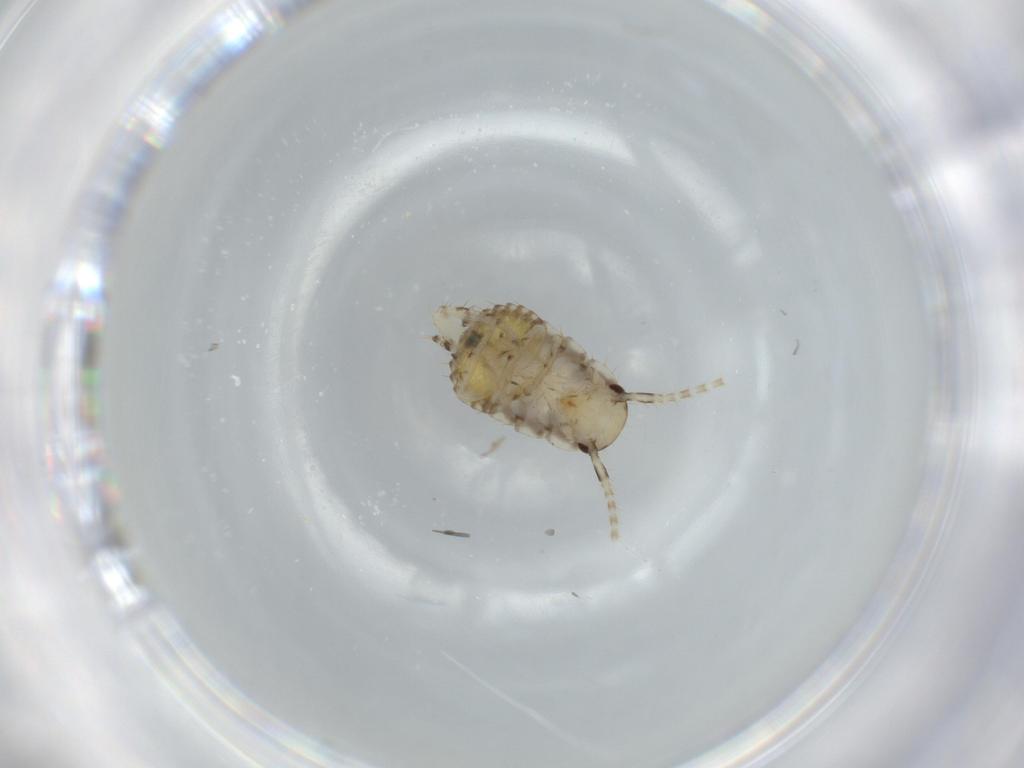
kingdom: Animalia
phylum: Arthropoda
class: Insecta
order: Blattodea
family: Ectobiidae
